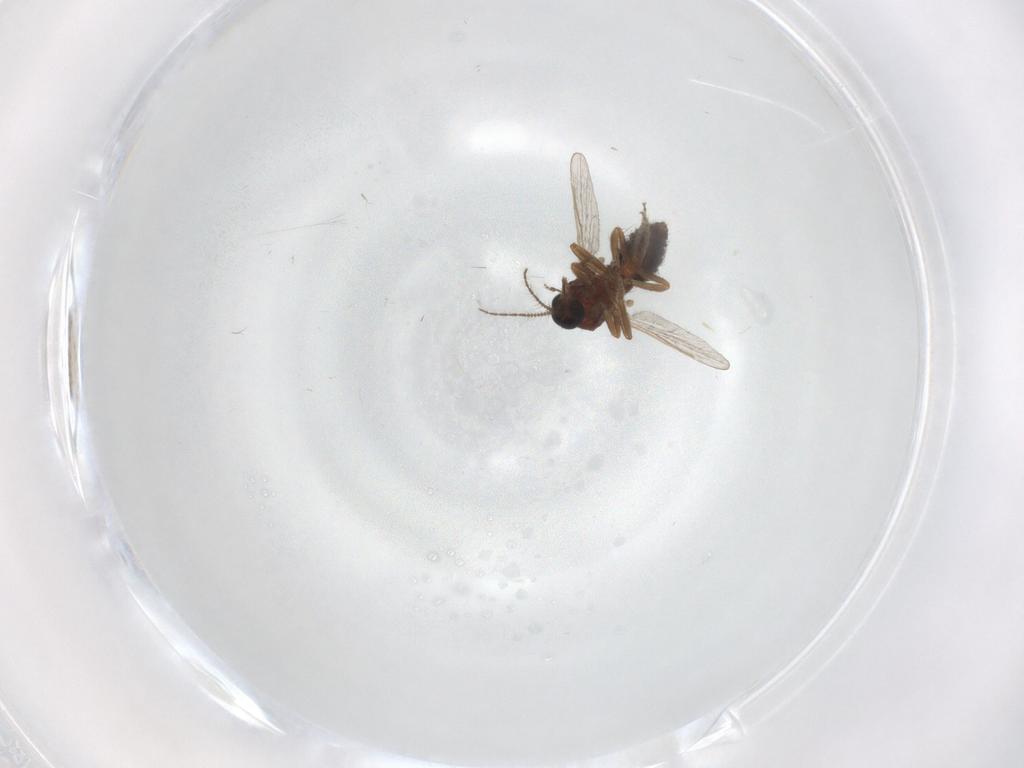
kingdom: Animalia
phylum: Arthropoda
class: Insecta
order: Diptera
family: Ceratopogonidae
